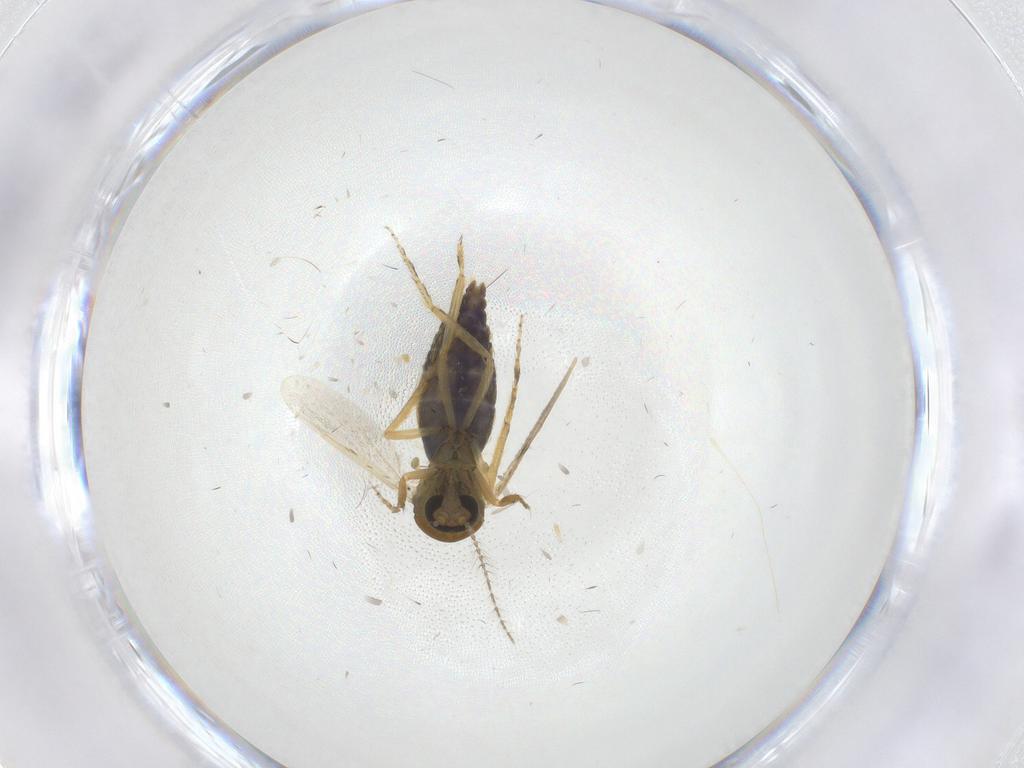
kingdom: Animalia
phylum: Arthropoda
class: Insecta
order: Diptera
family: Ceratopogonidae
